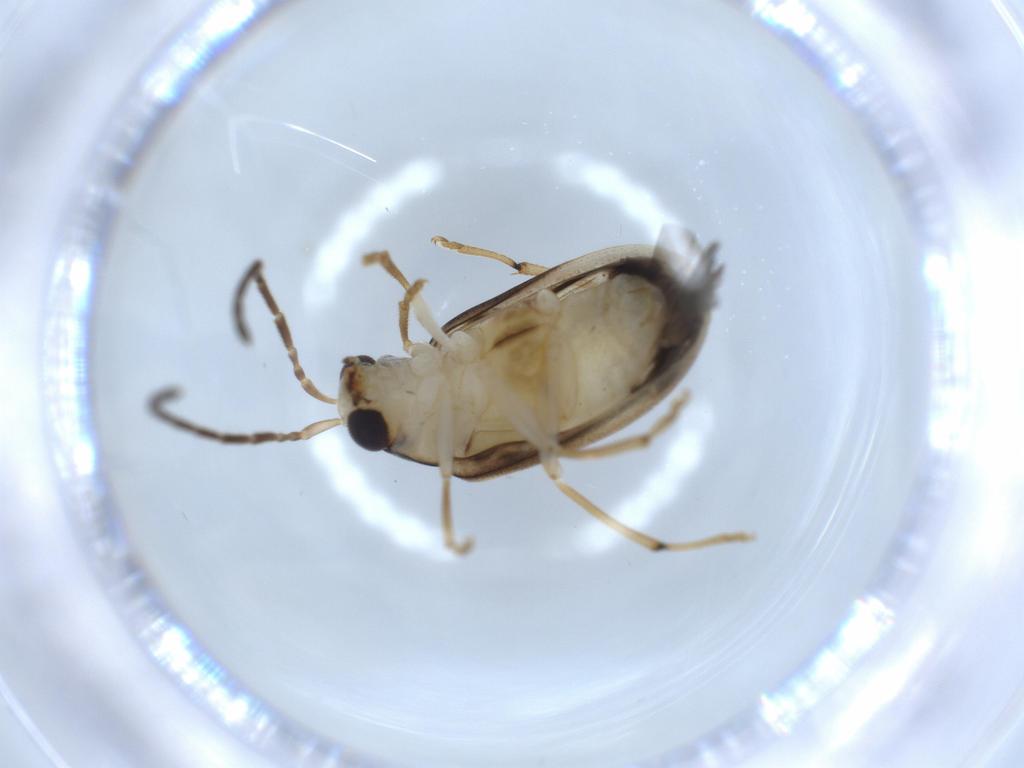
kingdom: Animalia
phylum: Arthropoda
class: Insecta
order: Coleoptera
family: Chrysomelidae
